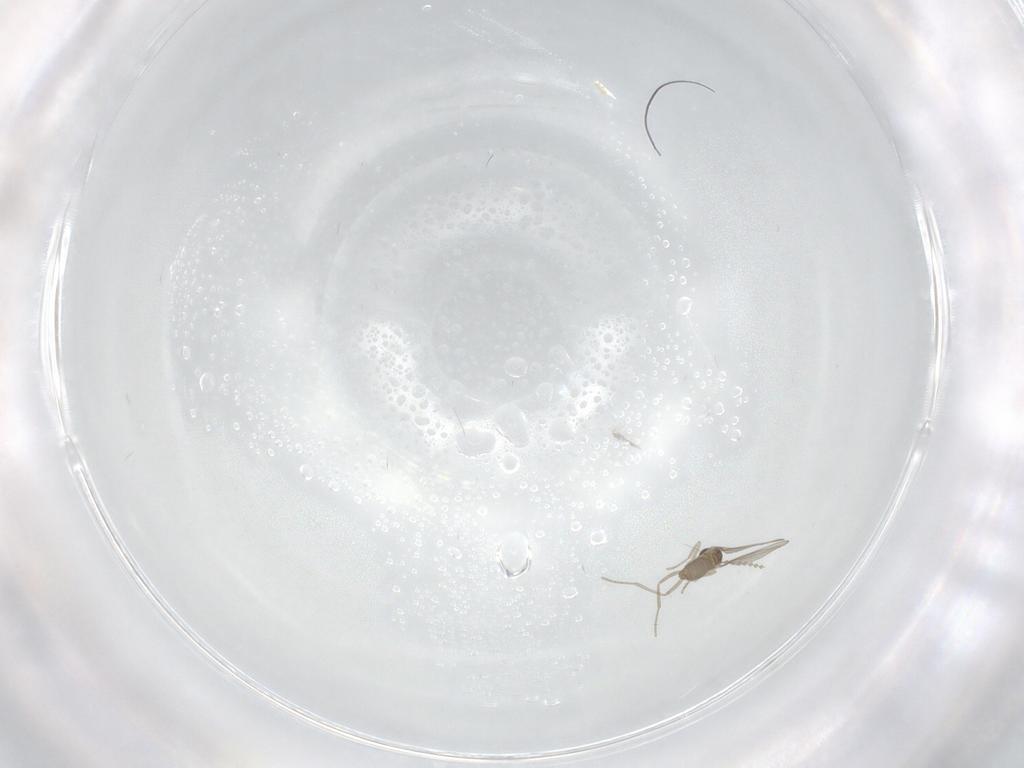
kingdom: Animalia
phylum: Arthropoda
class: Insecta
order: Diptera
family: Cecidomyiidae
